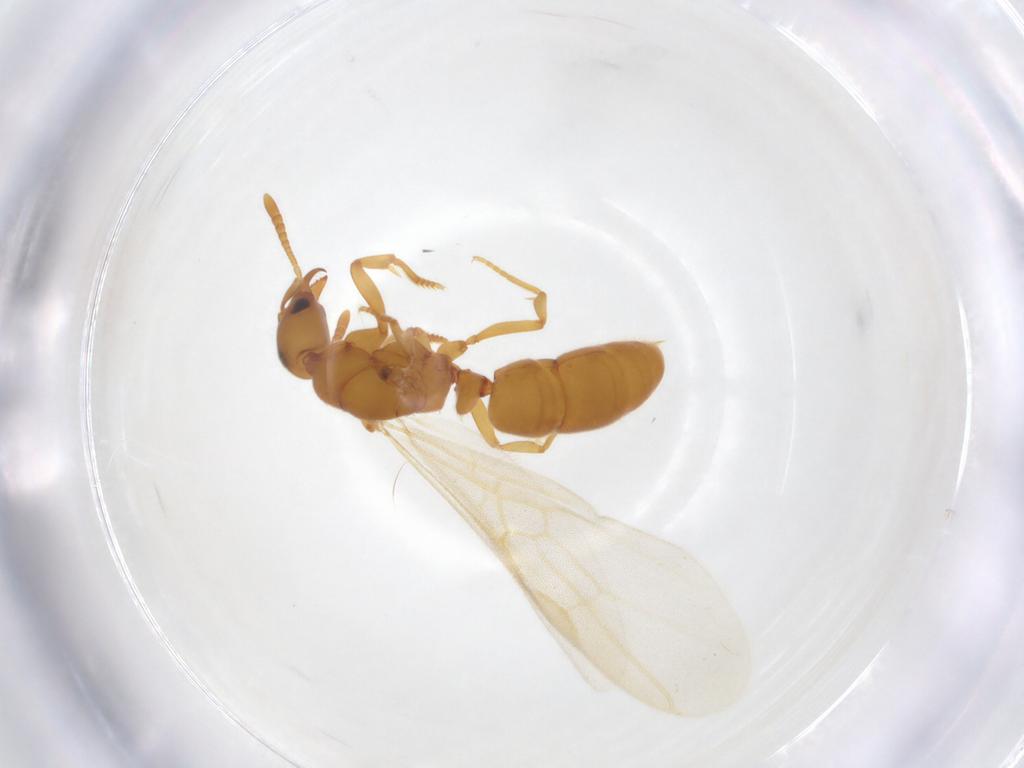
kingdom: Animalia
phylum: Arthropoda
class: Insecta
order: Hymenoptera
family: Formicidae
